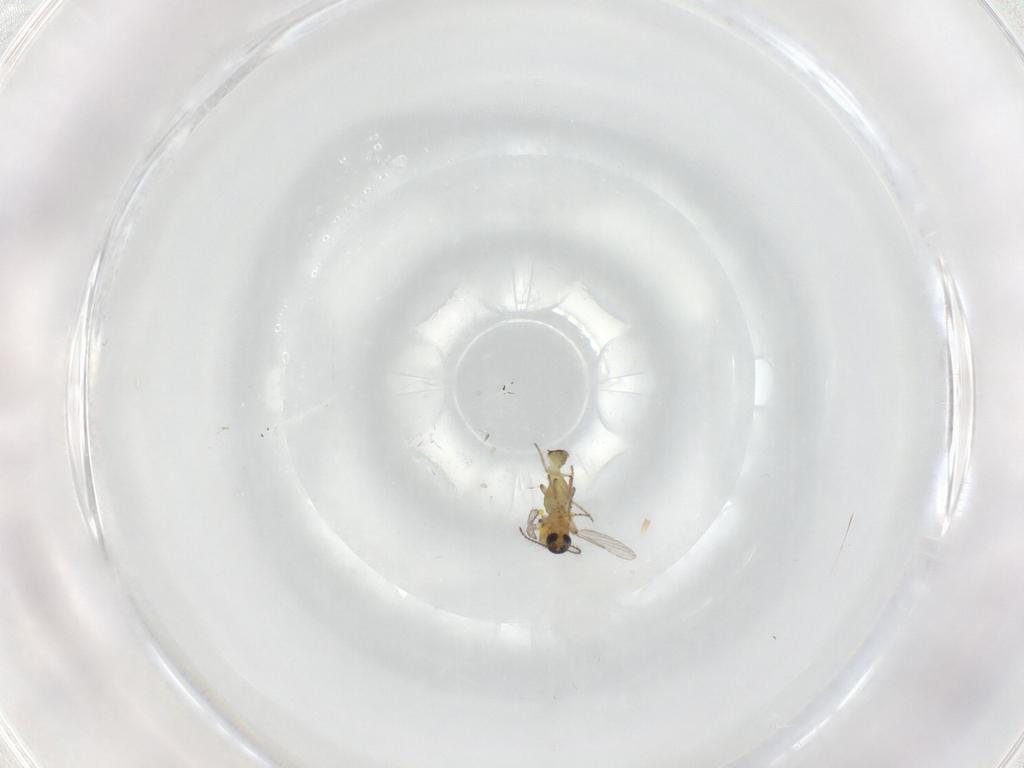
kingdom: Animalia
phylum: Arthropoda
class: Insecta
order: Diptera
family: Ceratopogonidae
